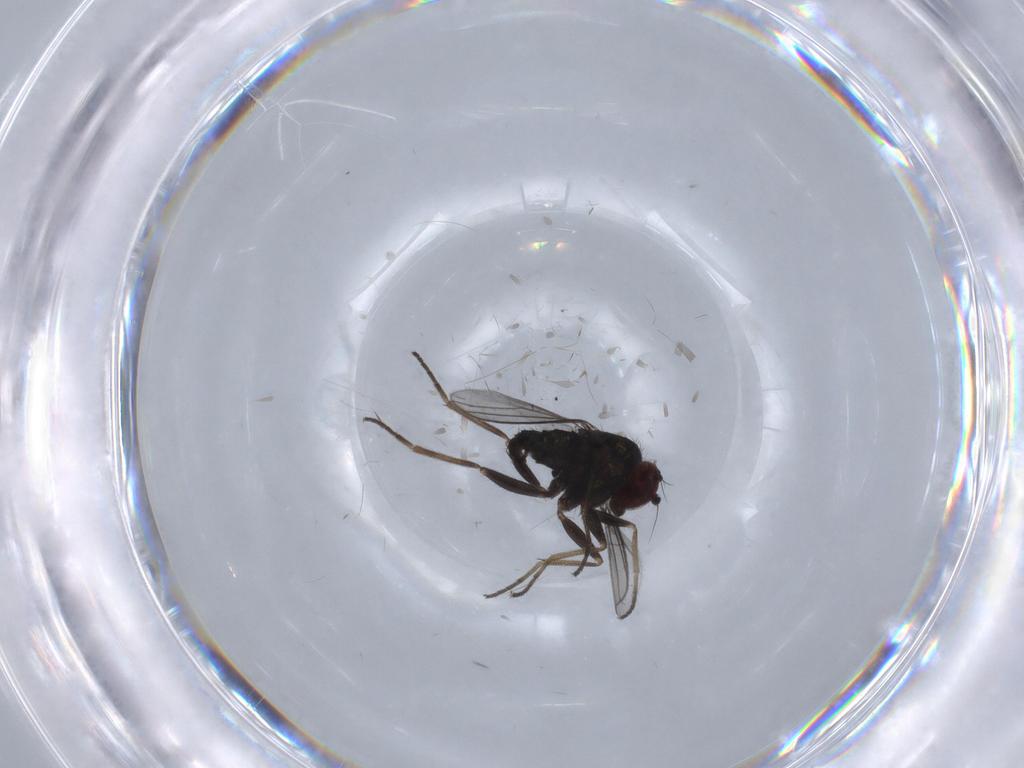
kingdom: Animalia
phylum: Arthropoda
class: Insecta
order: Diptera
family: Dolichopodidae
